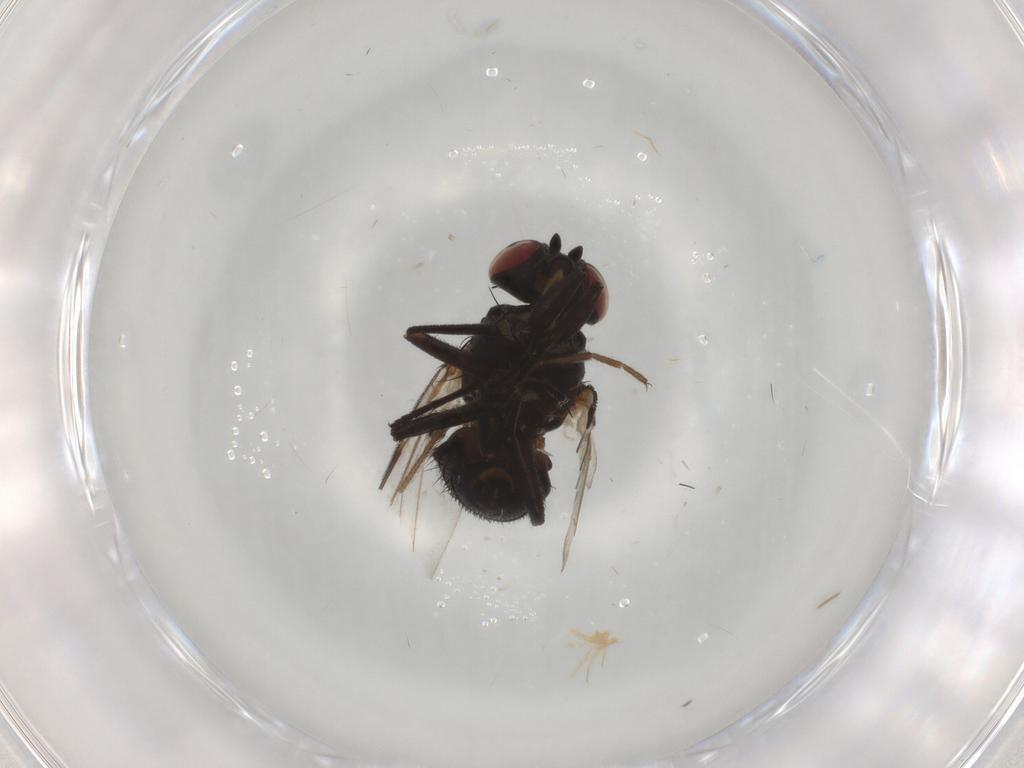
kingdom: Animalia
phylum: Arthropoda
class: Insecta
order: Diptera
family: Agromyzidae
